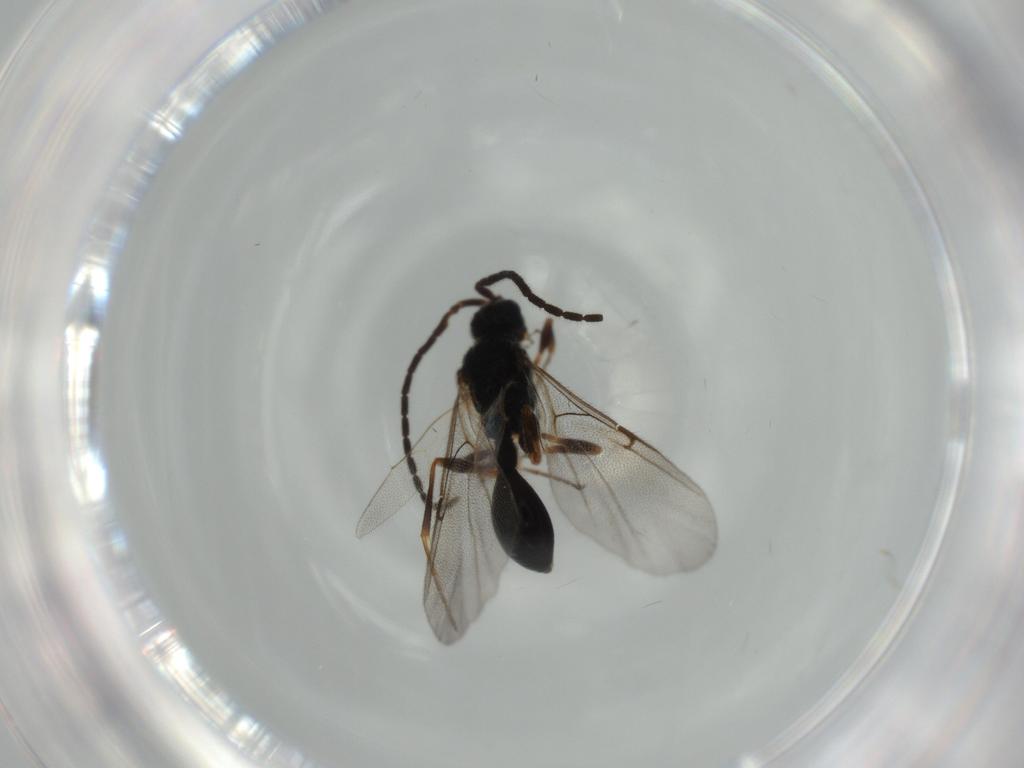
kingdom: Animalia
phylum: Arthropoda
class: Insecta
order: Hymenoptera
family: Diapriidae
